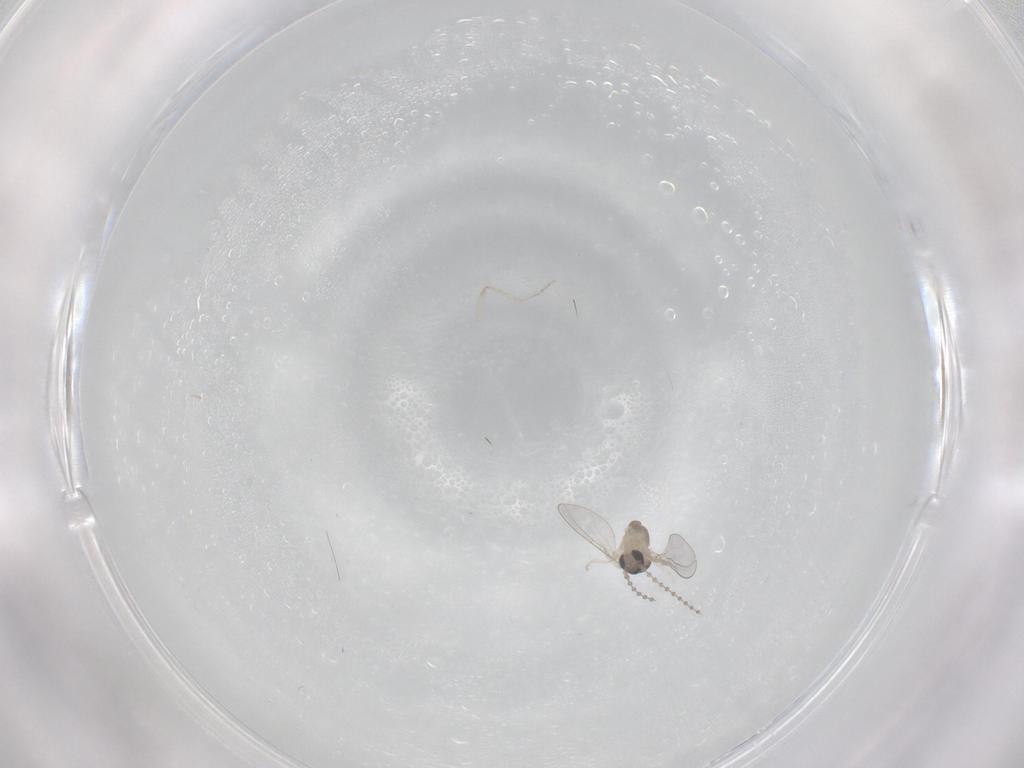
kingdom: Animalia
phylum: Arthropoda
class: Insecta
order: Diptera
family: Cecidomyiidae
